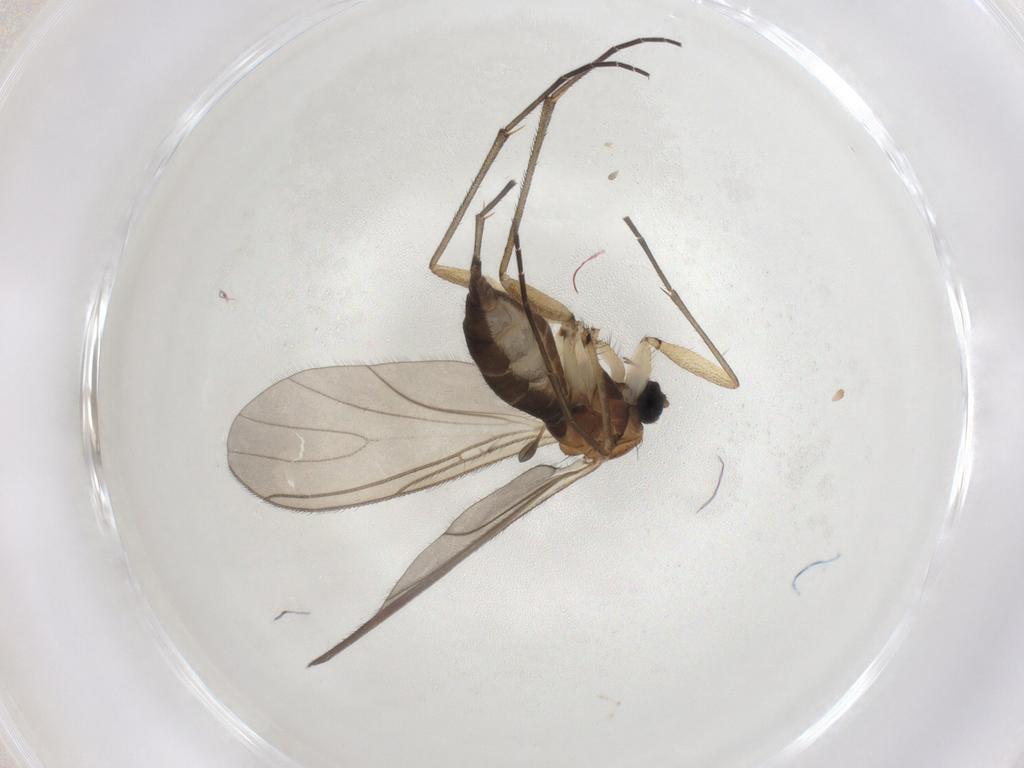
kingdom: Animalia
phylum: Arthropoda
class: Insecta
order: Diptera
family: Sciaridae
